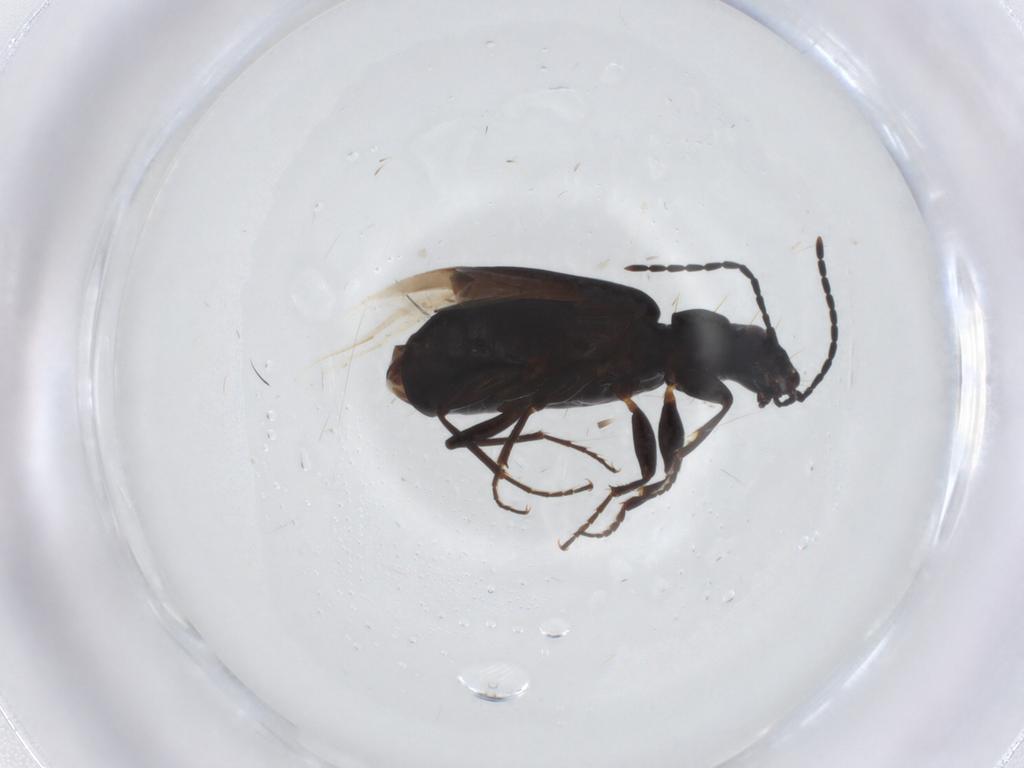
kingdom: Animalia
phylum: Arthropoda
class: Insecta
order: Coleoptera
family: Carabidae
